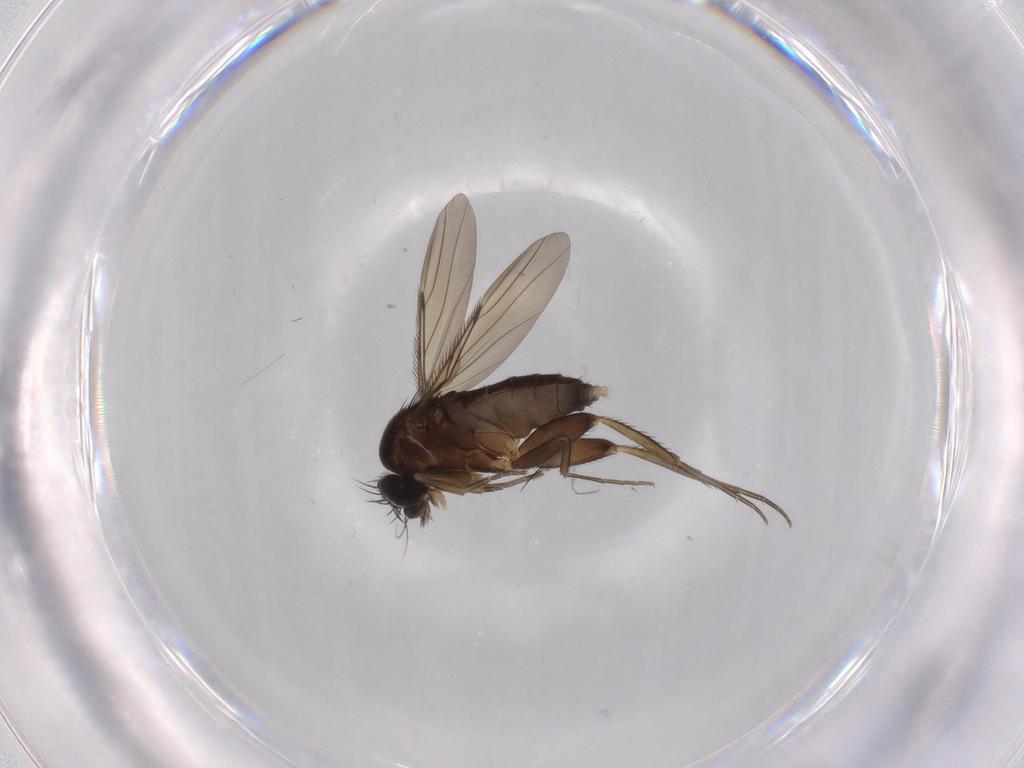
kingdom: Animalia
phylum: Arthropoda
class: Insecta
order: Diptera
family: Phoridae
